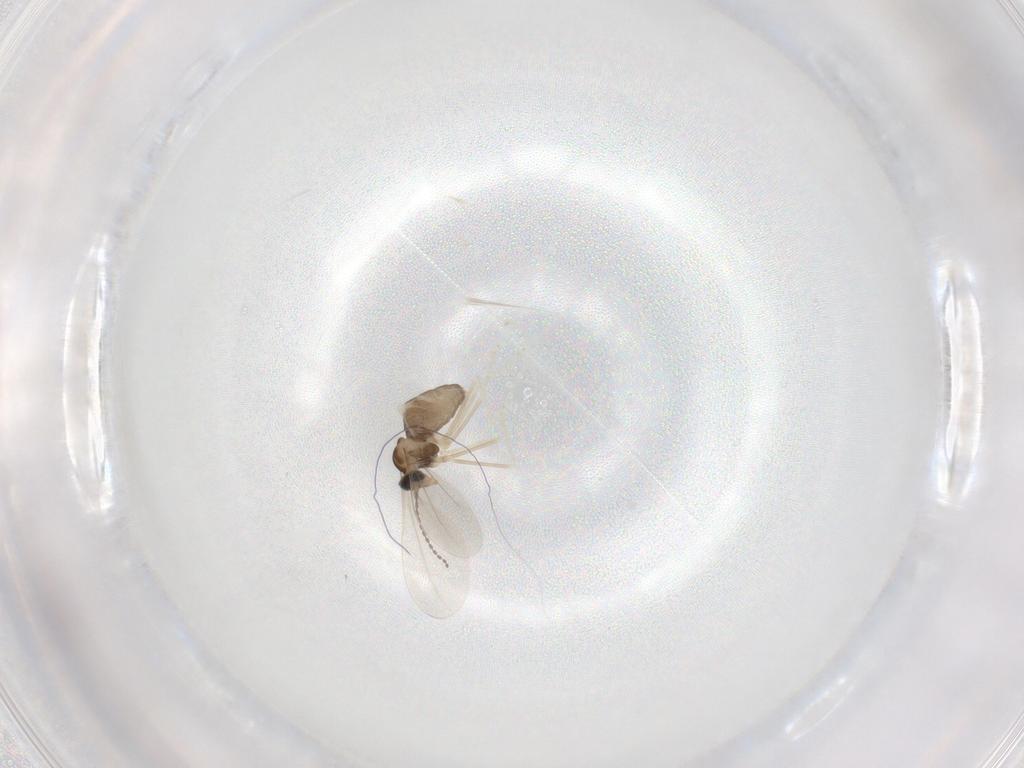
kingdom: Animalia
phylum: Arthropoda
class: Insecta
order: Diptera
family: Cecidomyiidae
